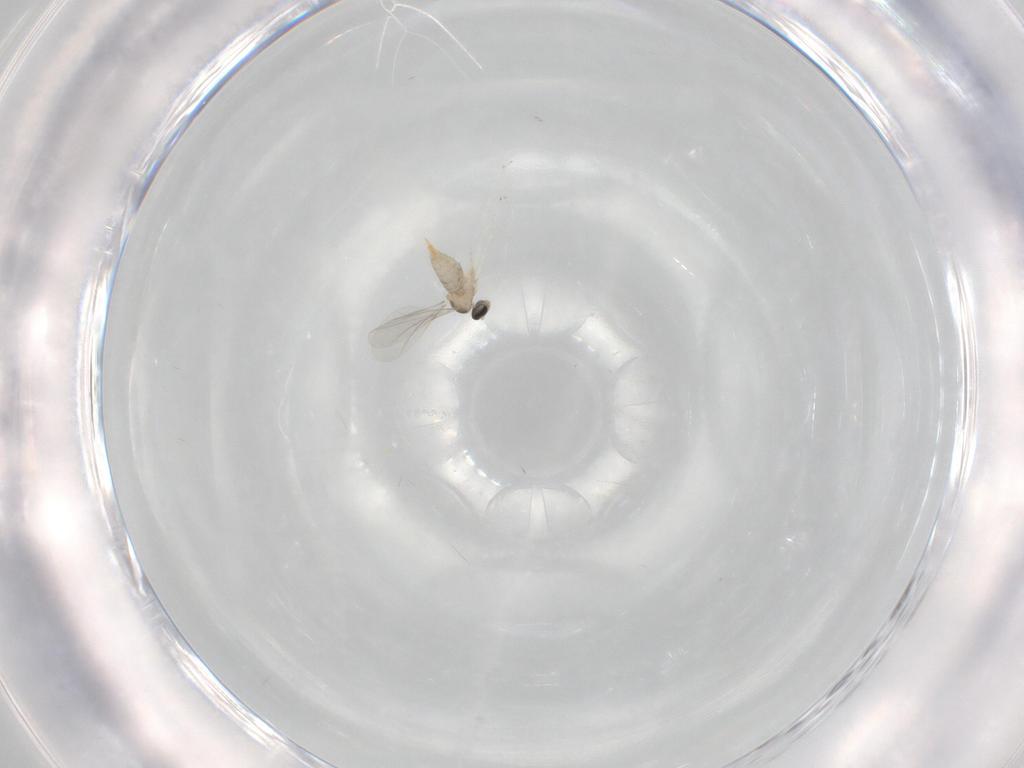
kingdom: Animalia
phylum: Arthropoda
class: Insecta
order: Diptera
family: Cecidomyiidae
